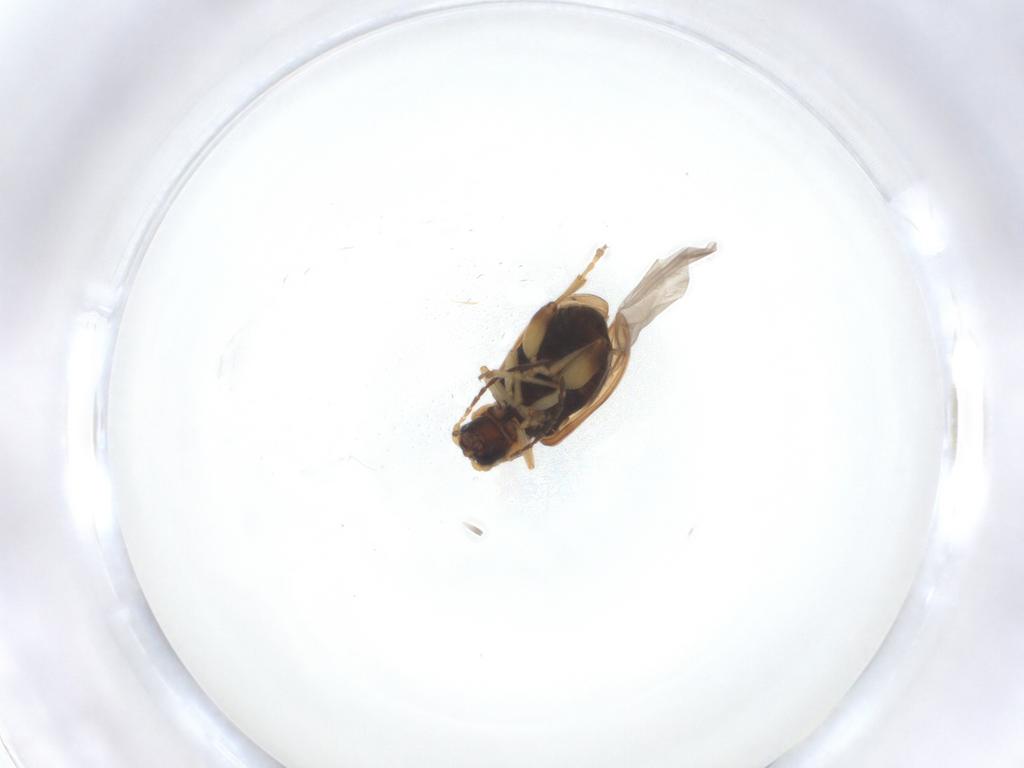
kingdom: Animalia
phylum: Arthropoda
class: Insecta
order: Coleoptera
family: Chrysomelidae
